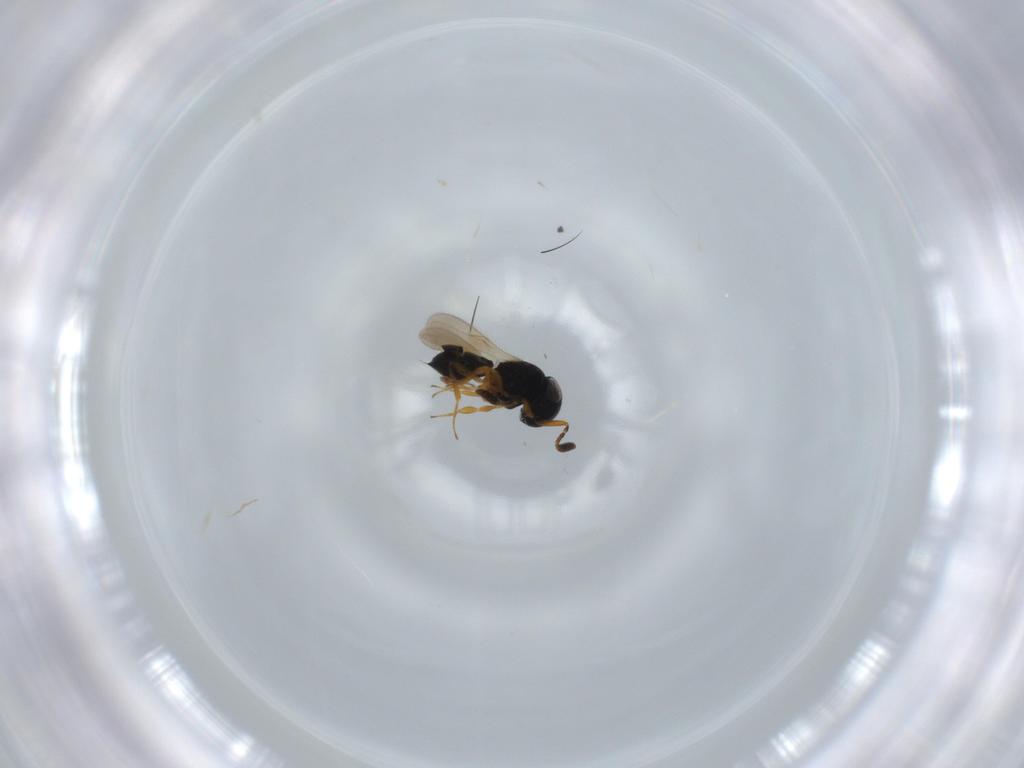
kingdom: Animalia
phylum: Arthropoda
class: Insecta
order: Hymenoptera
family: Scelionidae
